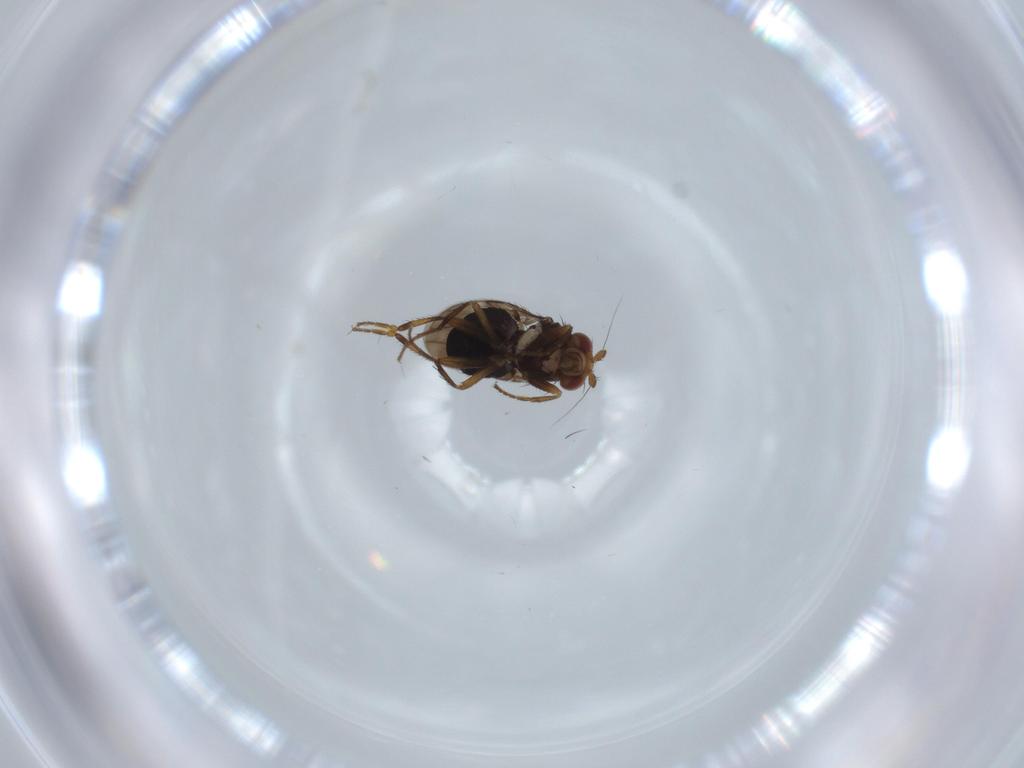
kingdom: Animalia
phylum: Arthropoda
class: Insecta
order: Diptera
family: Sphaeroceridae
